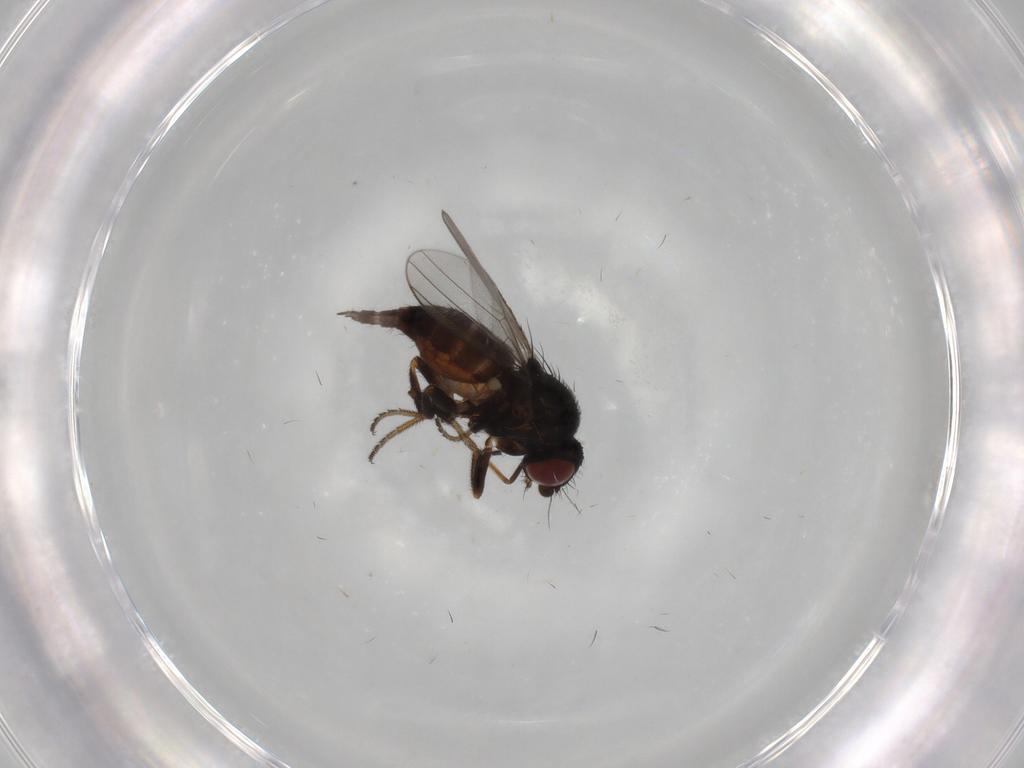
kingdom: Animalia
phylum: Arthropoda
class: Insecta
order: Diptera
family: Milichiidae
